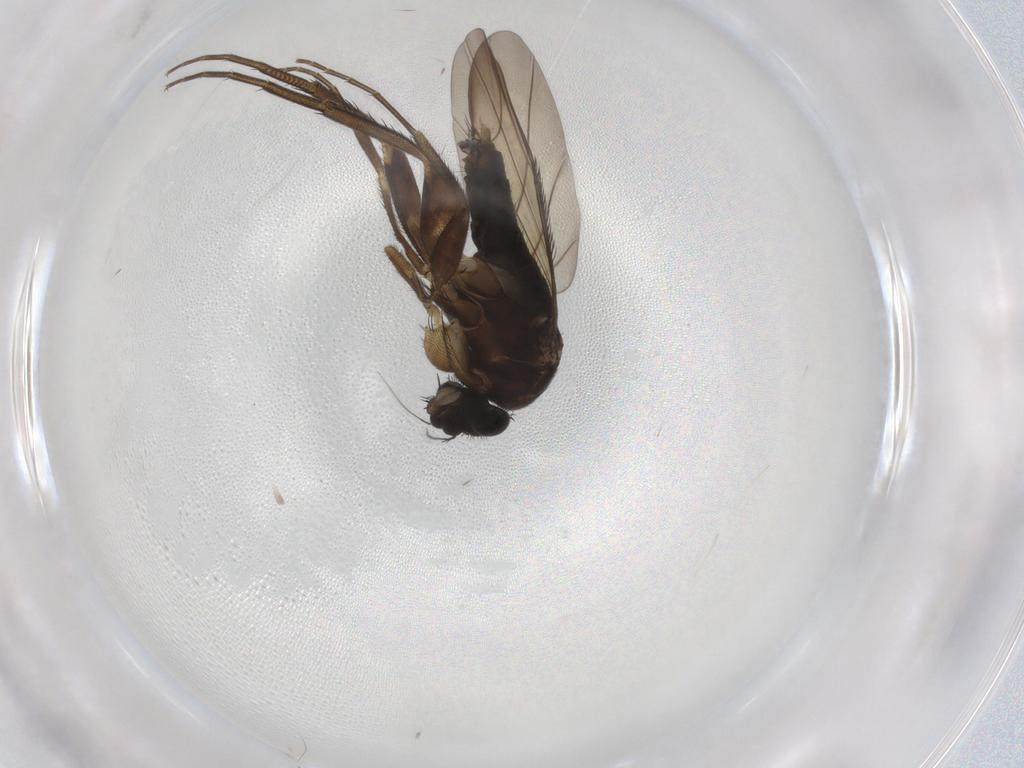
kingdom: Animalia
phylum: Arthropoda
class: Insecta
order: Diptera
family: Phoridae
